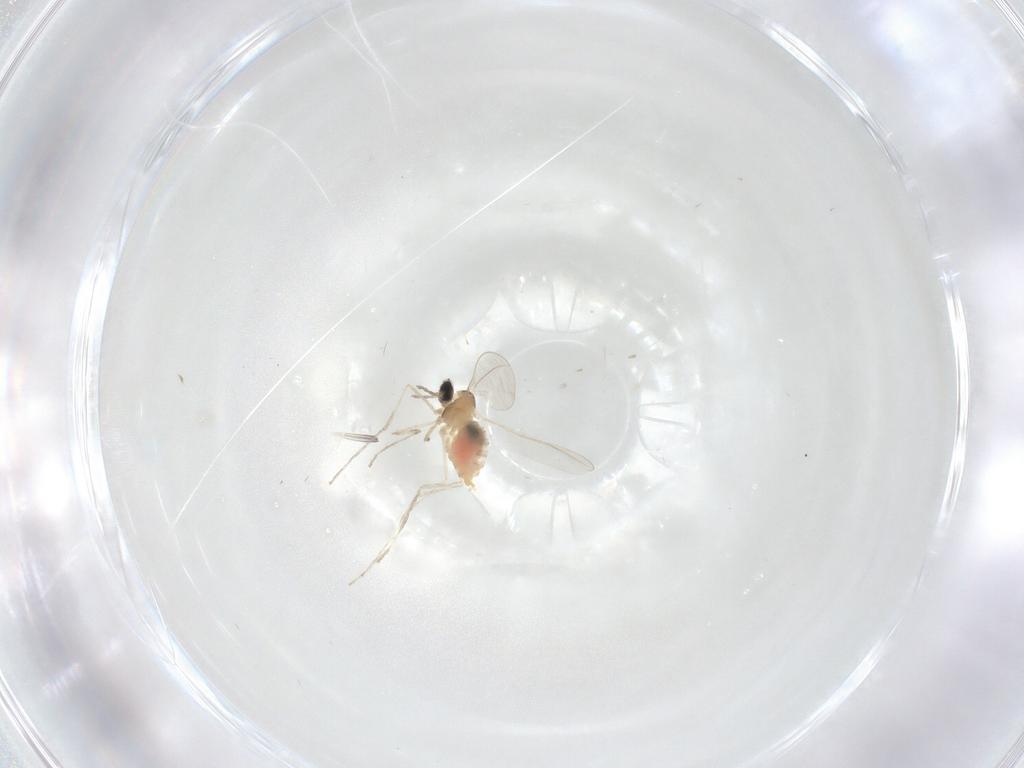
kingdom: Animalia
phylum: Arthropoda
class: Insecta
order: Diptera
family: Cecidomyiidae
